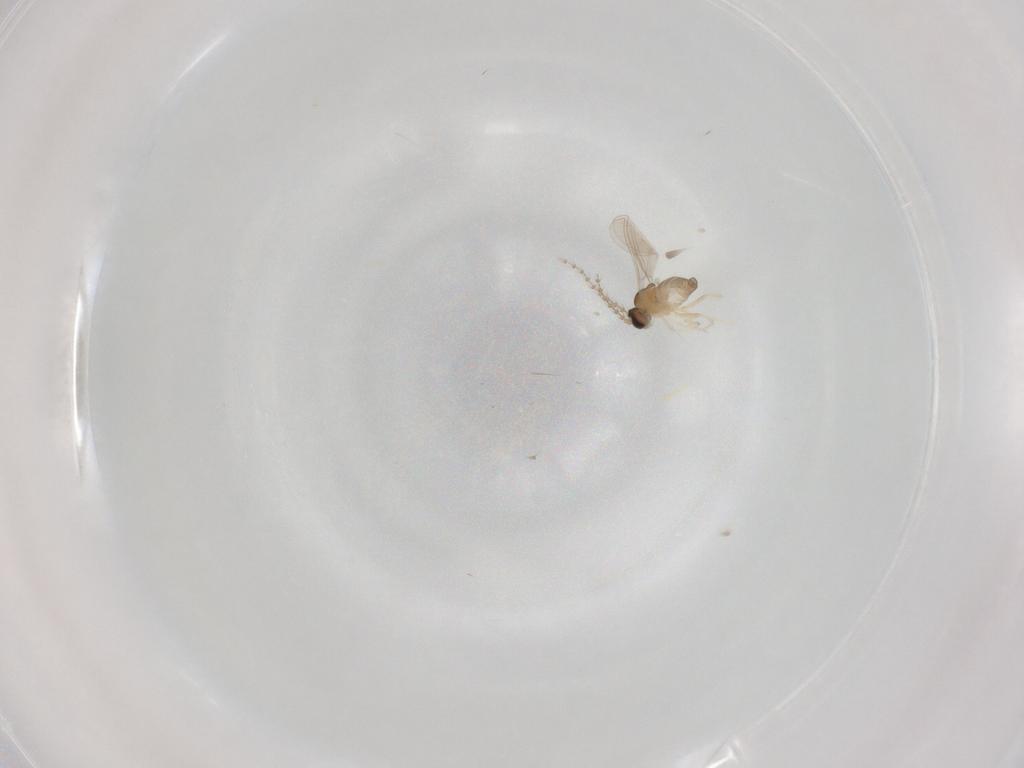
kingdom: Animalia
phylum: Arthropoda
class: Insecta
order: Diptera
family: Cecidomyiidae
